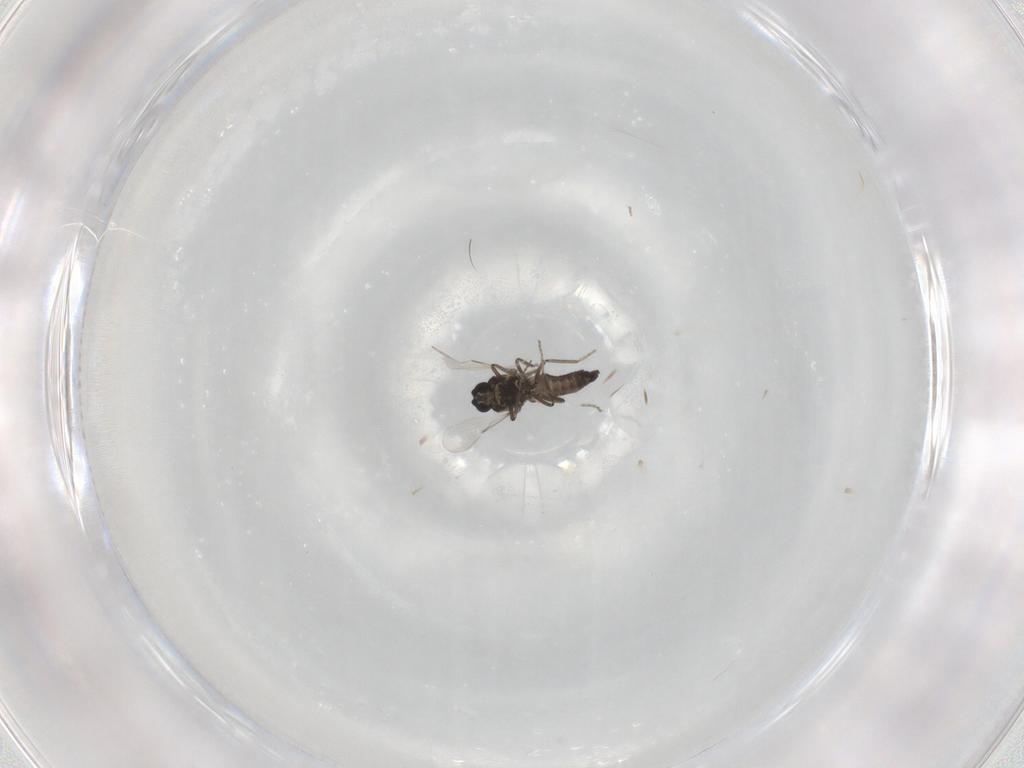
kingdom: Animalia
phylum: Arthropoda
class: Insecta
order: Diptera
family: Ceratopogonidae
